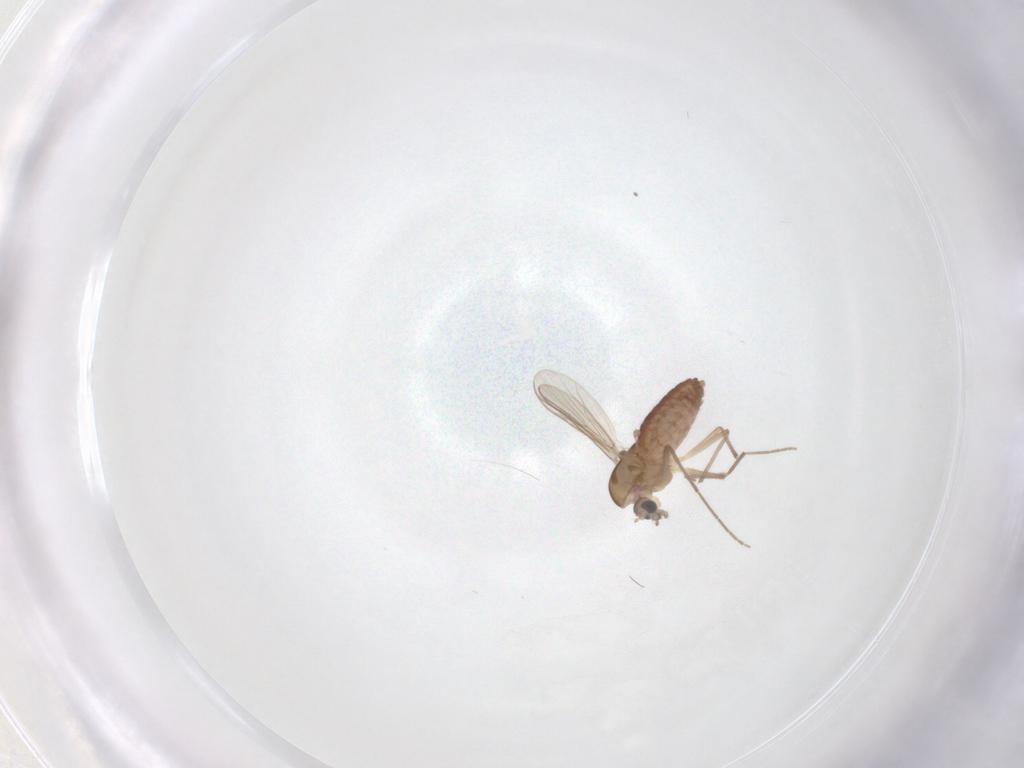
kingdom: Animalia
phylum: Arthropoda
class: Insecta
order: Diptera
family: Chironomidae
